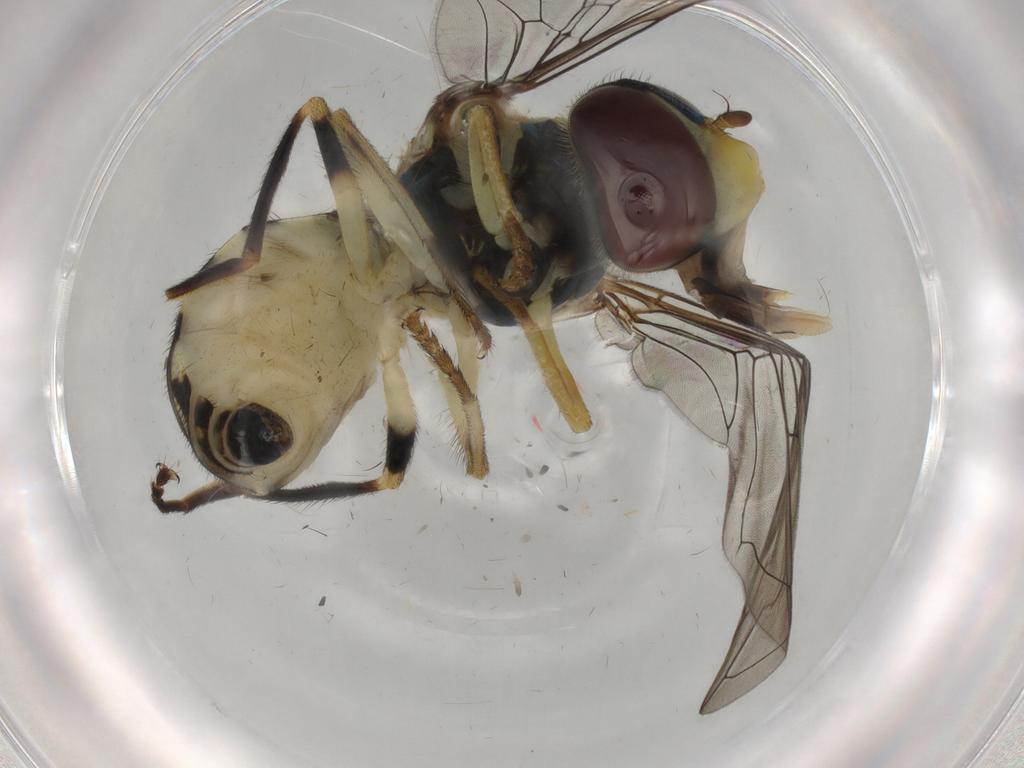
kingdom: Animalia
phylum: Arthropoda
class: Insecta
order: Diptera
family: Syrphidae
